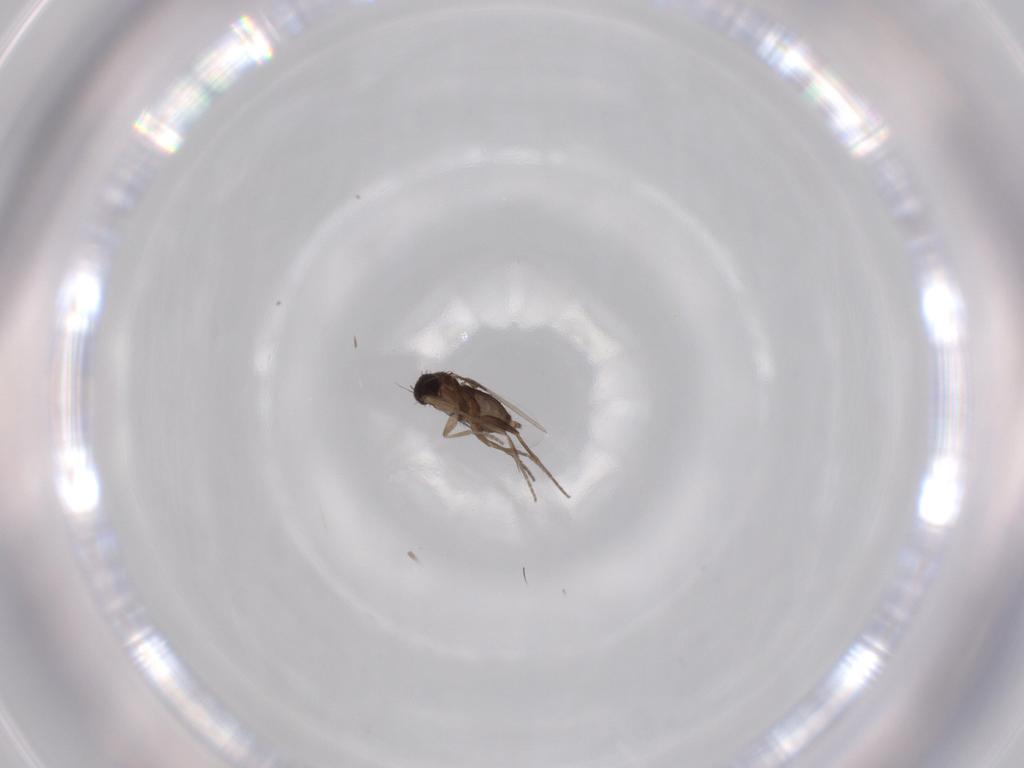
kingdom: Animalia
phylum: Arthropoda
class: Insecta
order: Diptera
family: Phoridae
